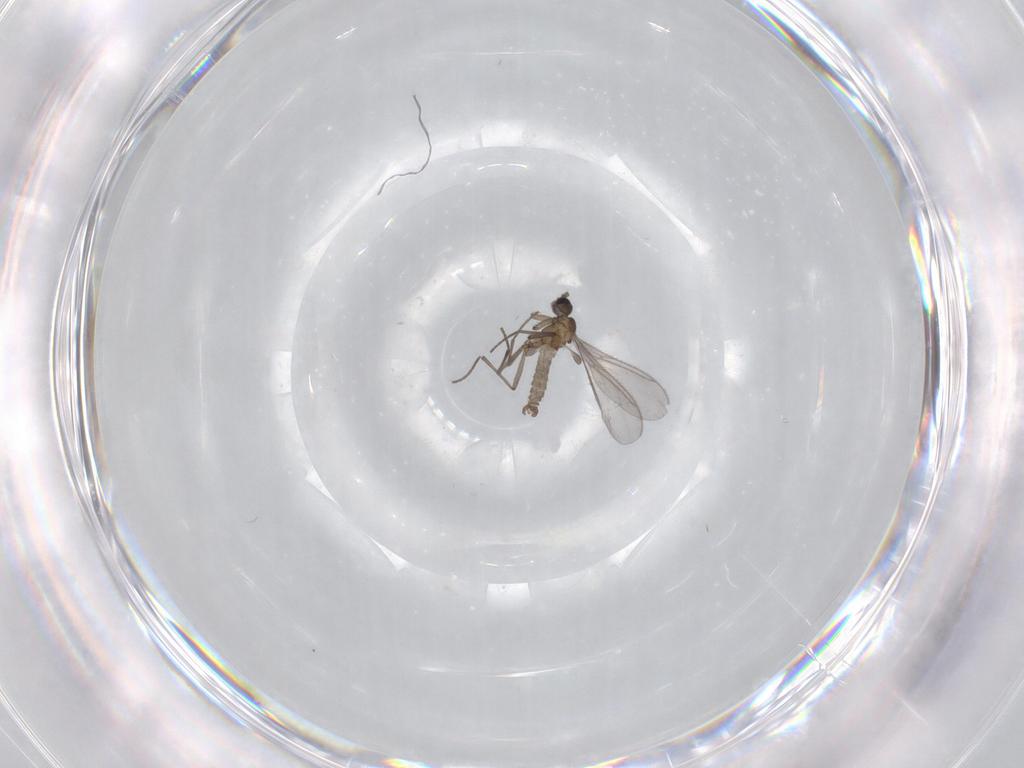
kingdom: Animalia
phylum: Arthropoda
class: Insecta
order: Diptera
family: Sciaridae
